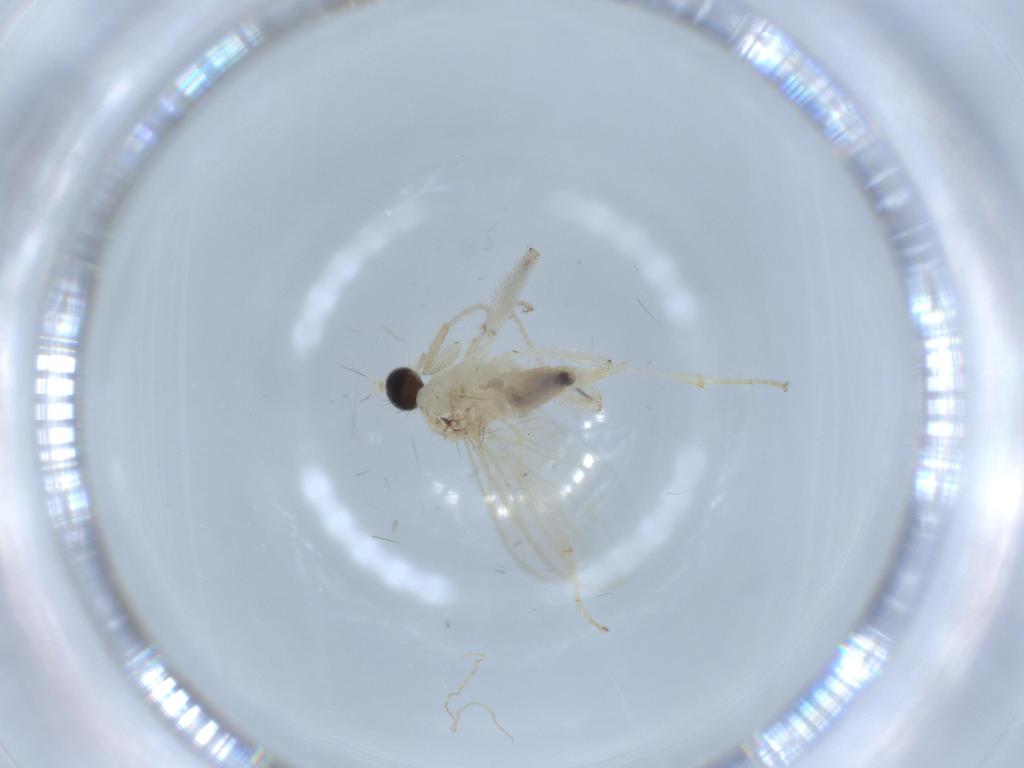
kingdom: Animalia
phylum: Arthropoda
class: Insecta
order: Diptera
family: Hybotidae
